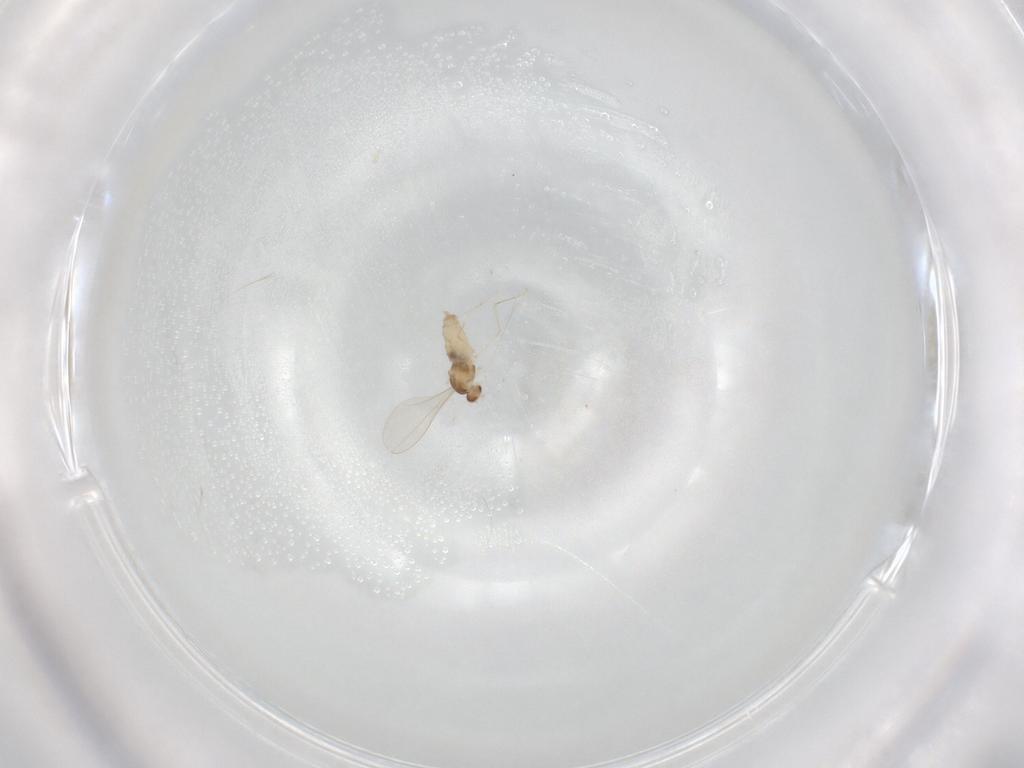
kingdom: Animalia
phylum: Arthropoda
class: Insecta
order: Diptera
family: Cecidomyiidae
